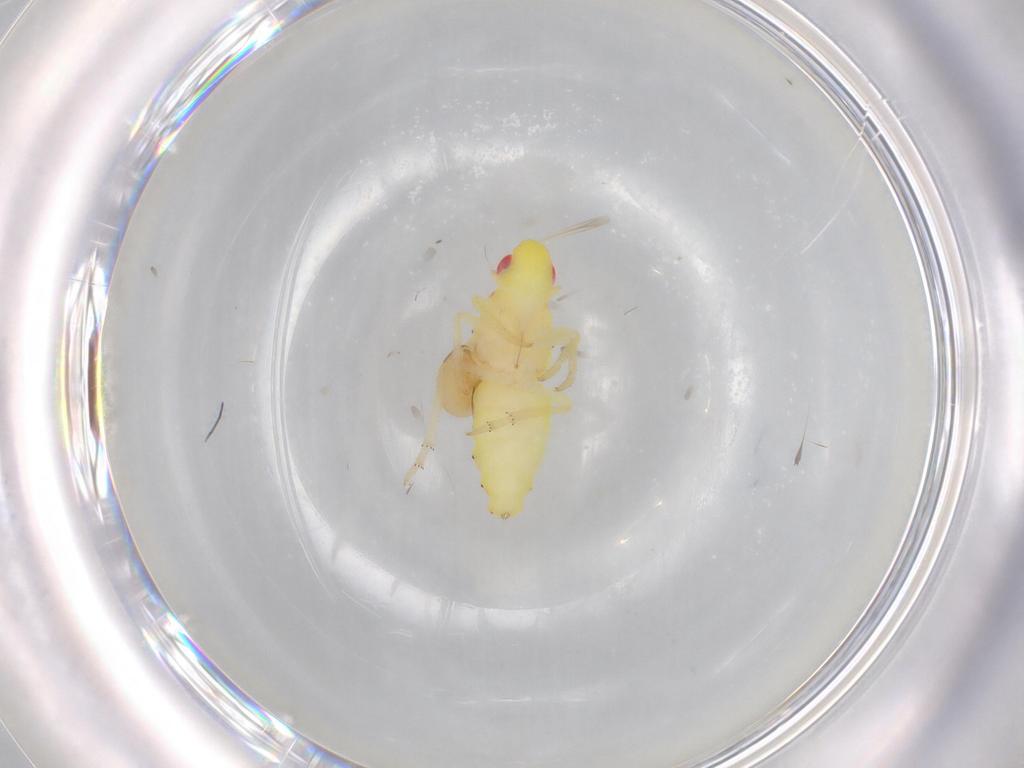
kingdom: Animalia
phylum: Arthropoda
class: Insecta
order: Hemiptera
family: Tropiduchidae
